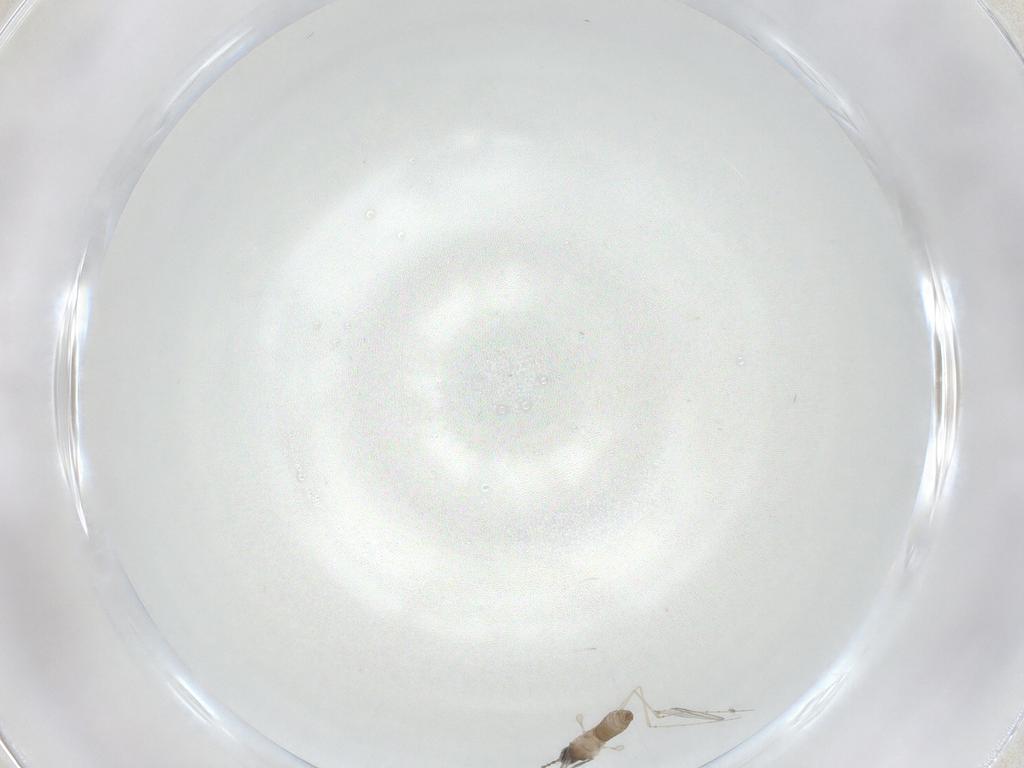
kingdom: Animalia
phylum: Arthropoda
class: Insecta
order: Diptera
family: Cecidomyiidae
